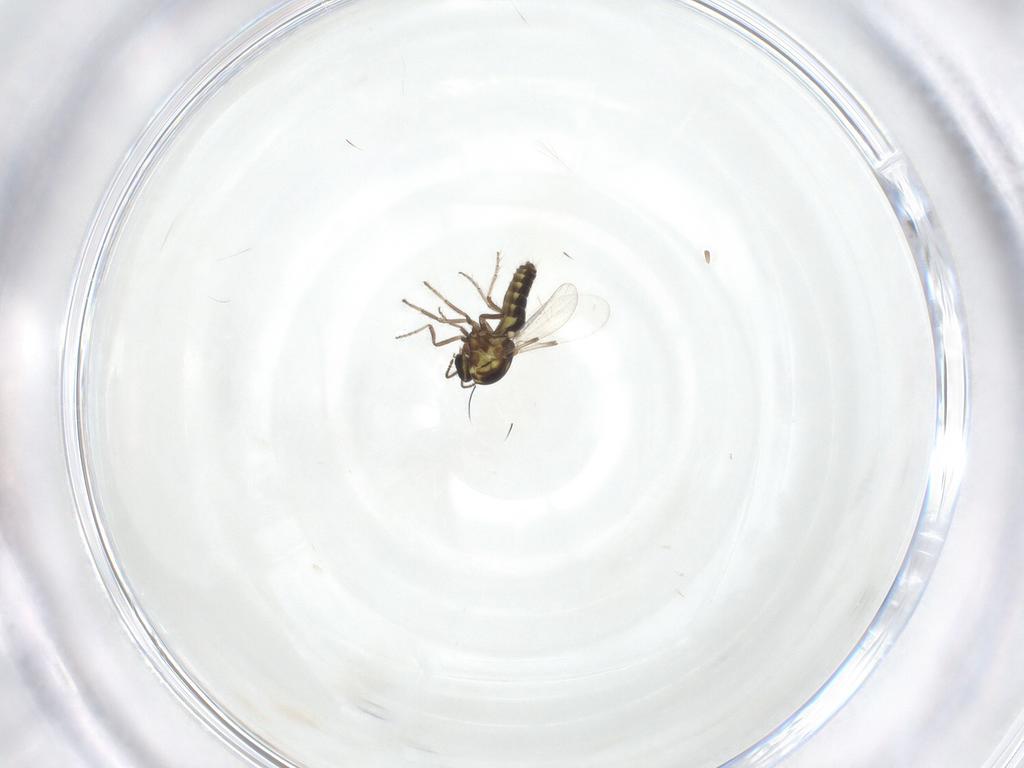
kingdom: Animalia
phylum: Arthropoda
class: Insecta
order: Diptera
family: Ceratopogonidae
